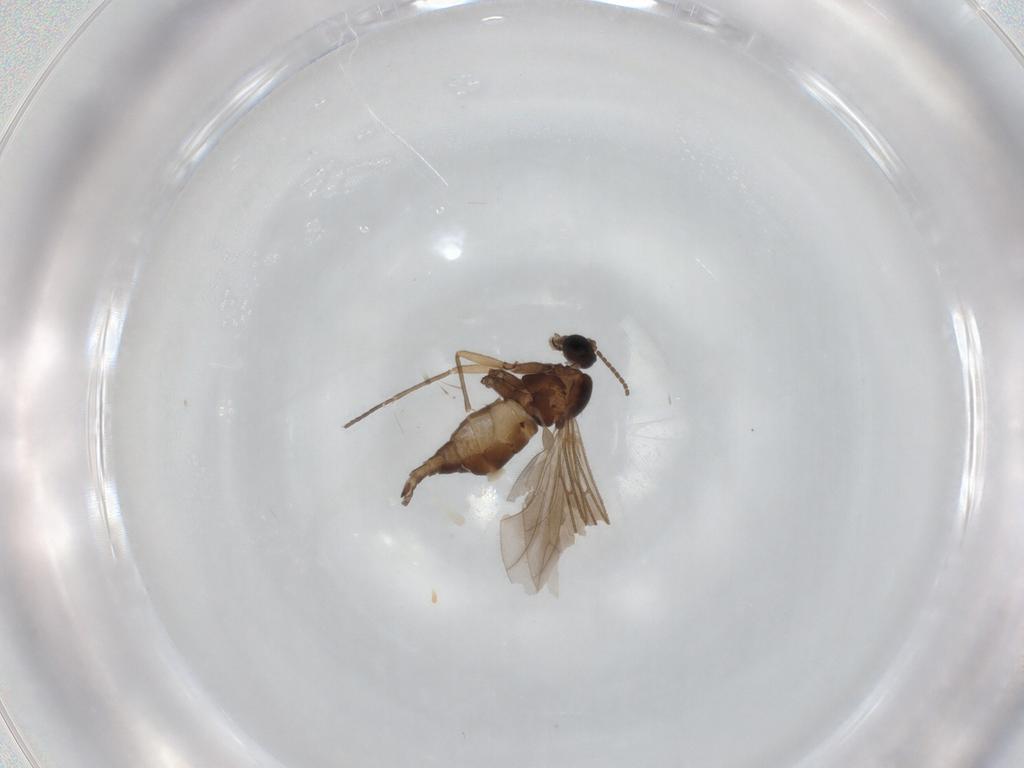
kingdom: Animalia
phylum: Arthropoda
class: Insecta
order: Diptera
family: Sciaridae
